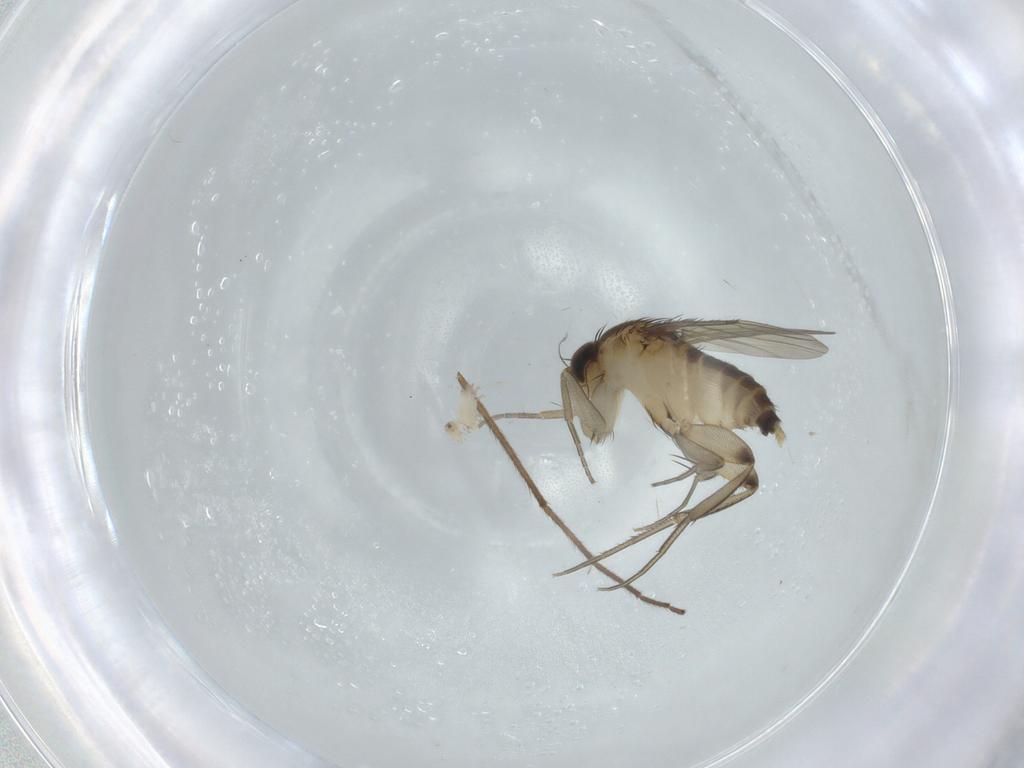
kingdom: Animalia
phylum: Arthropoda
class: Insecta
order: Diptera
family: Chironomidae
